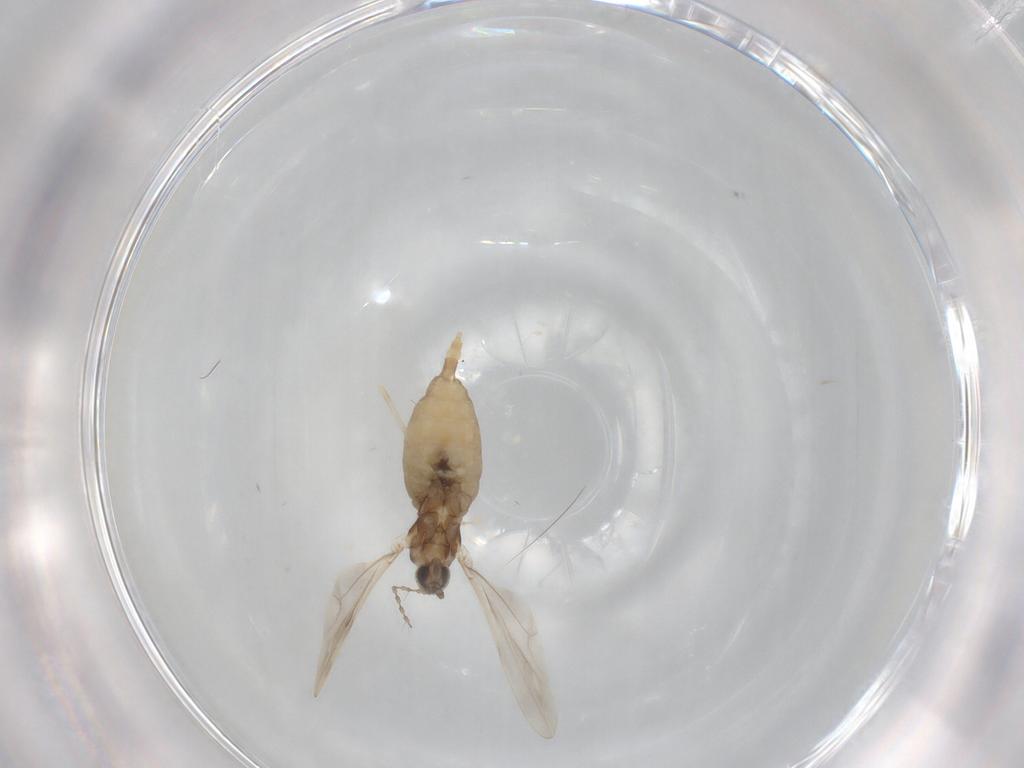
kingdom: Animalia
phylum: Arthropoda
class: Insecta
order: Diptera
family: Cecidomyiidae
